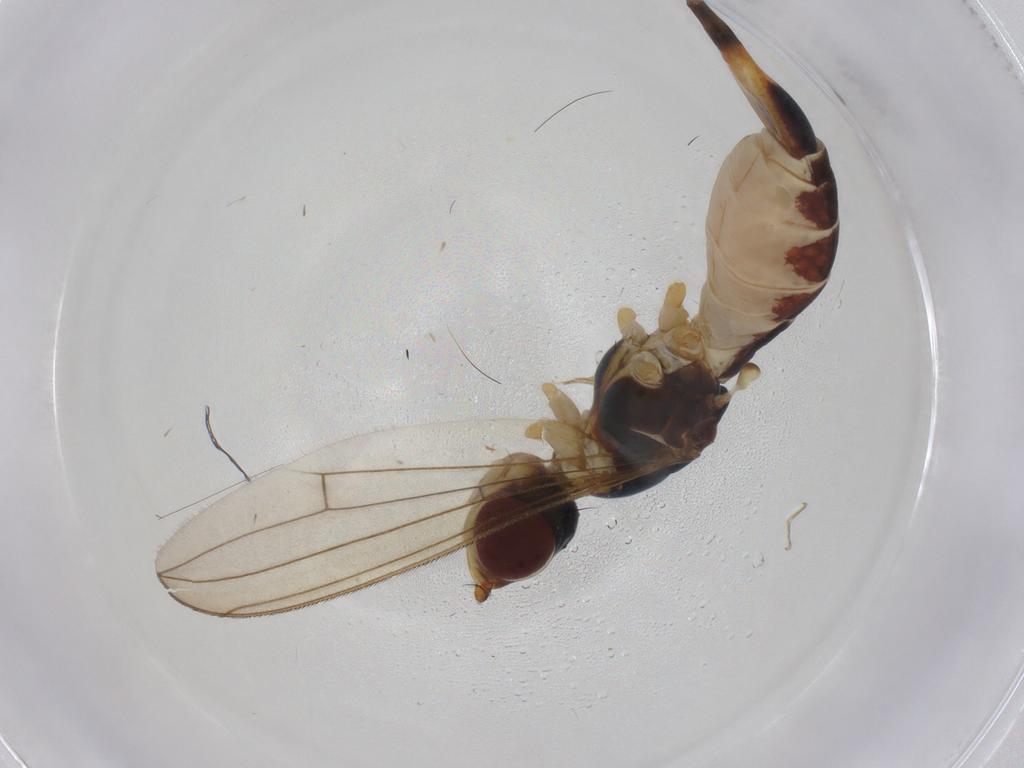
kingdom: Animalia
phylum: Arthropoda
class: Insecta
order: Diptera
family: Micropezidae
